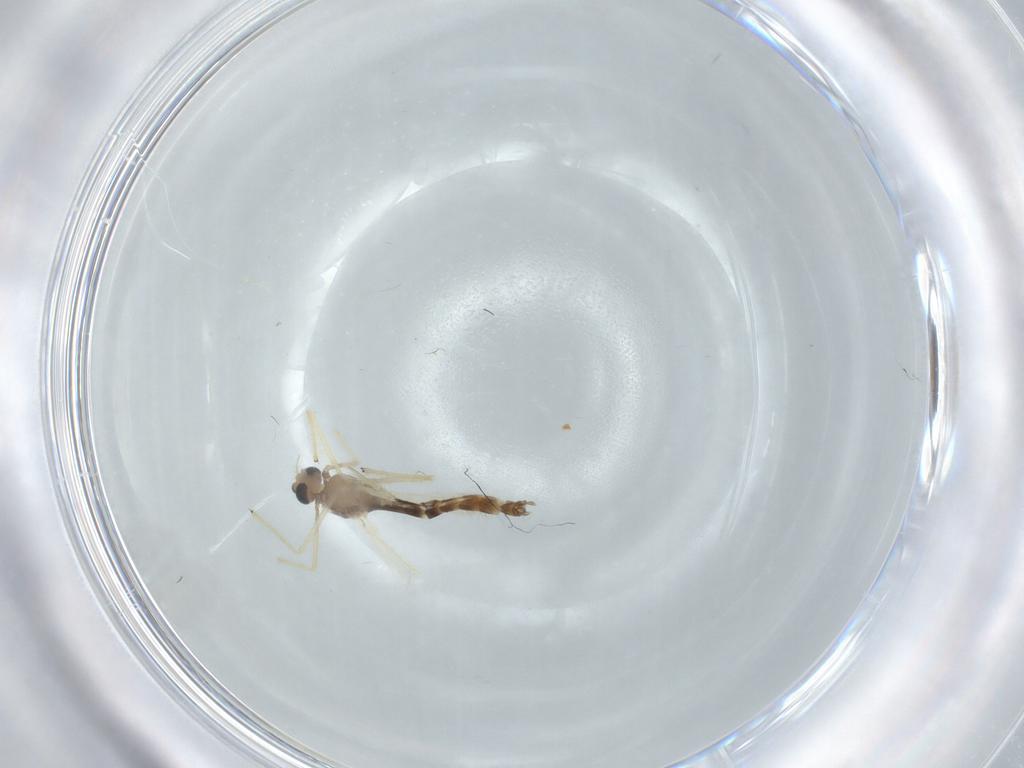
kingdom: Animalia
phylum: Arthropoda
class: Insecta
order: Diptera
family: Chironomidae
